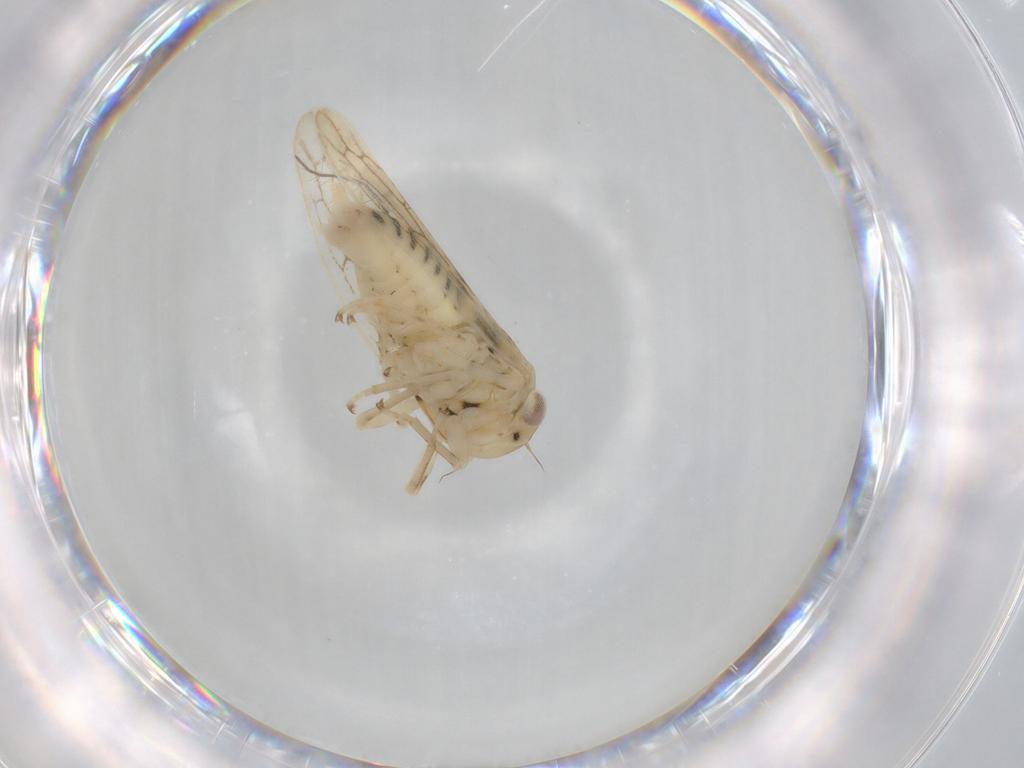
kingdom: Animalia
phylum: Arthropoda
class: Insecta
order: Hemiptera
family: Cicadellidae
